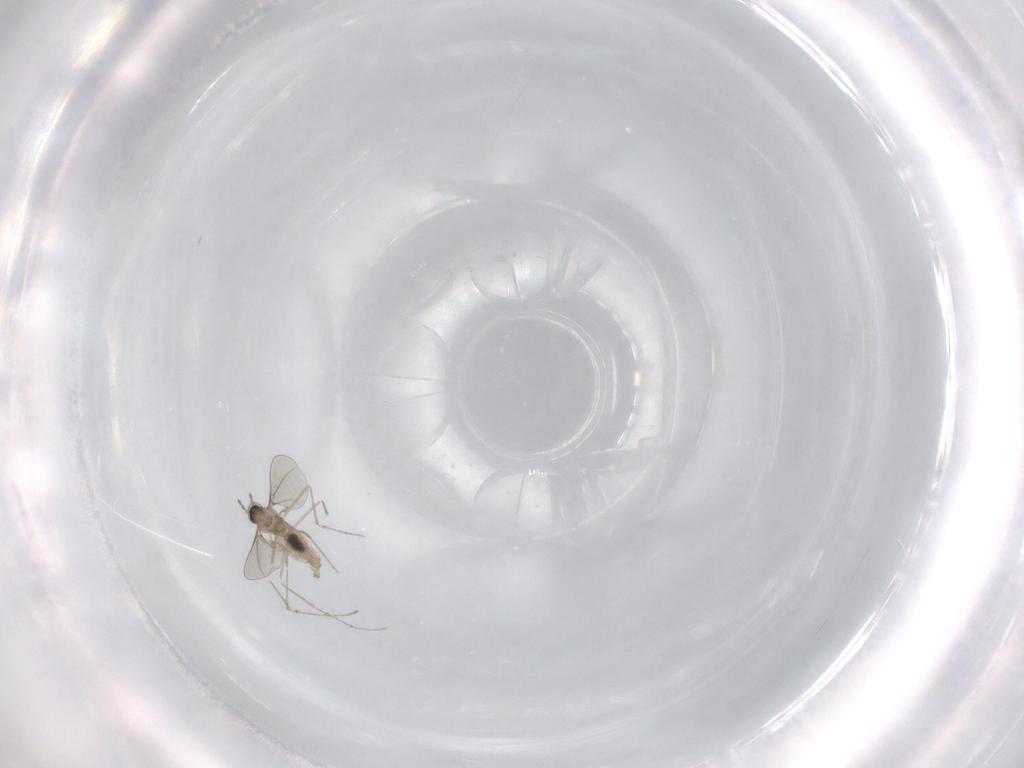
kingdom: Animalia
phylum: Arthropoda
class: Insecta
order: Diptera
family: Cecidomyiidae
